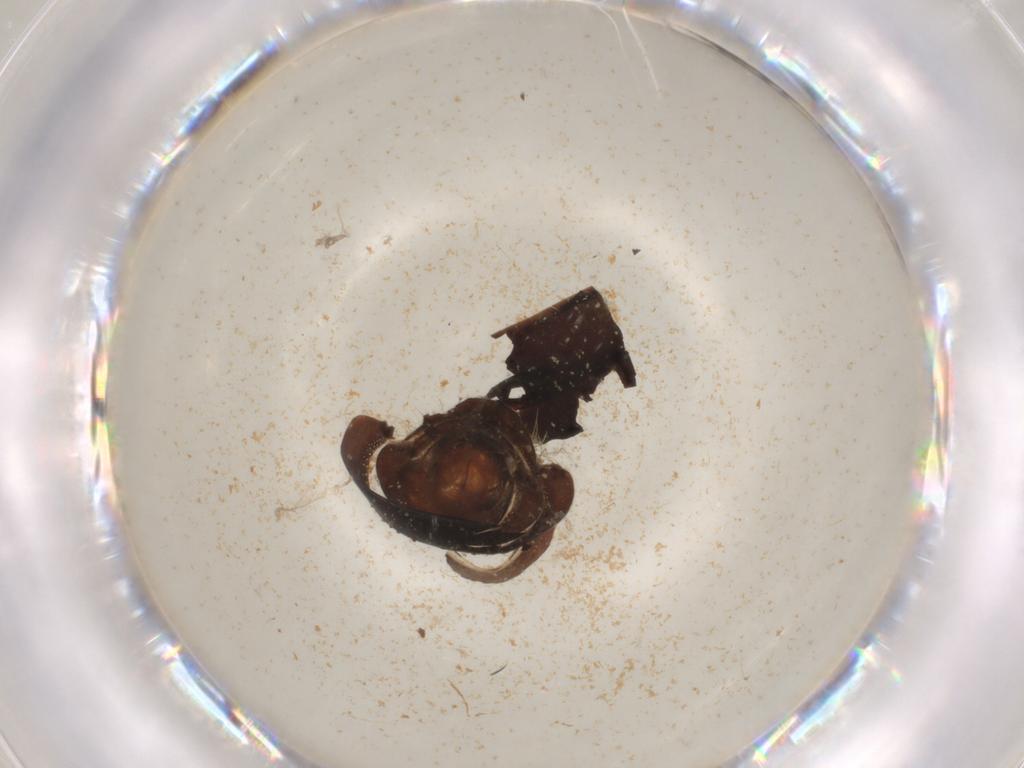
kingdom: Animalia
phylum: Arthropoda
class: Insecta
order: Diptera
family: Bombyliidae
